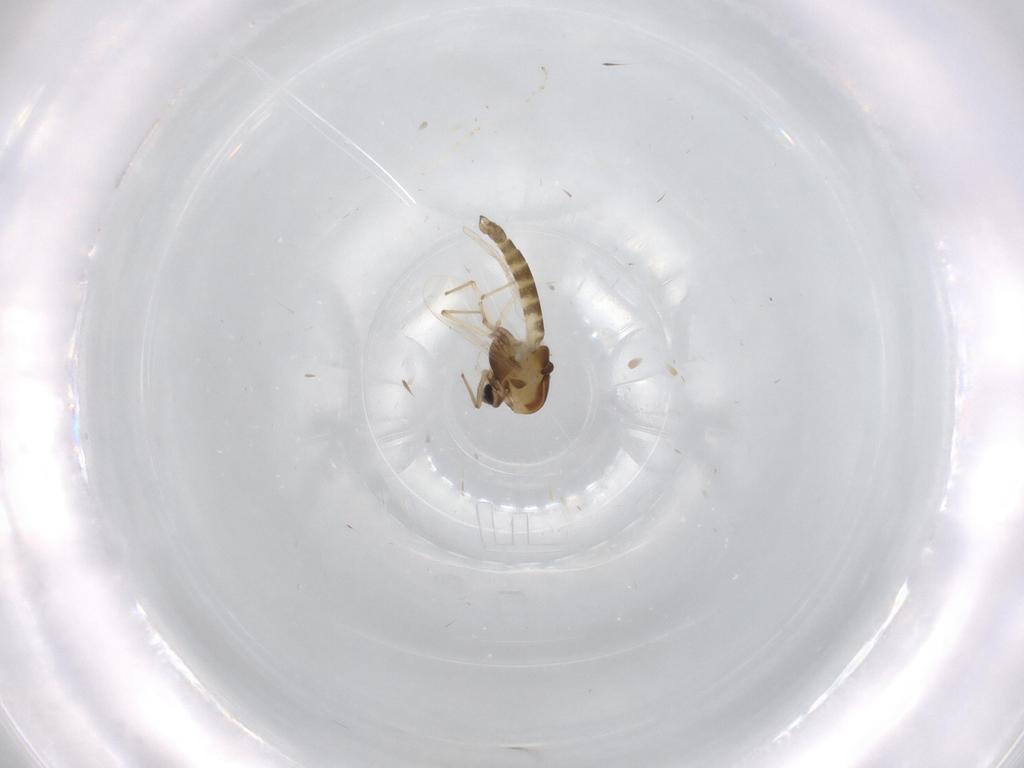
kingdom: Animalia
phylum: Arthropoda
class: Insecta
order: Diptera
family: Chironomidae
